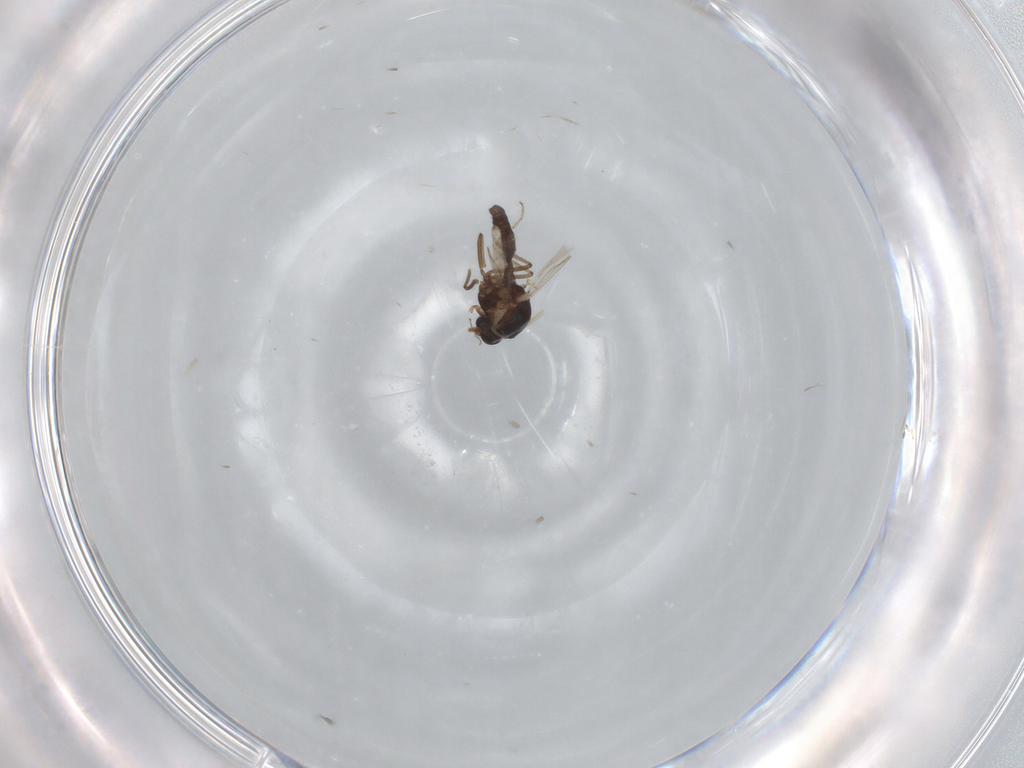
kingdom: Animalia
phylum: Arthropoda
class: Insecta
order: Diptera
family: Ceratopogonidae
